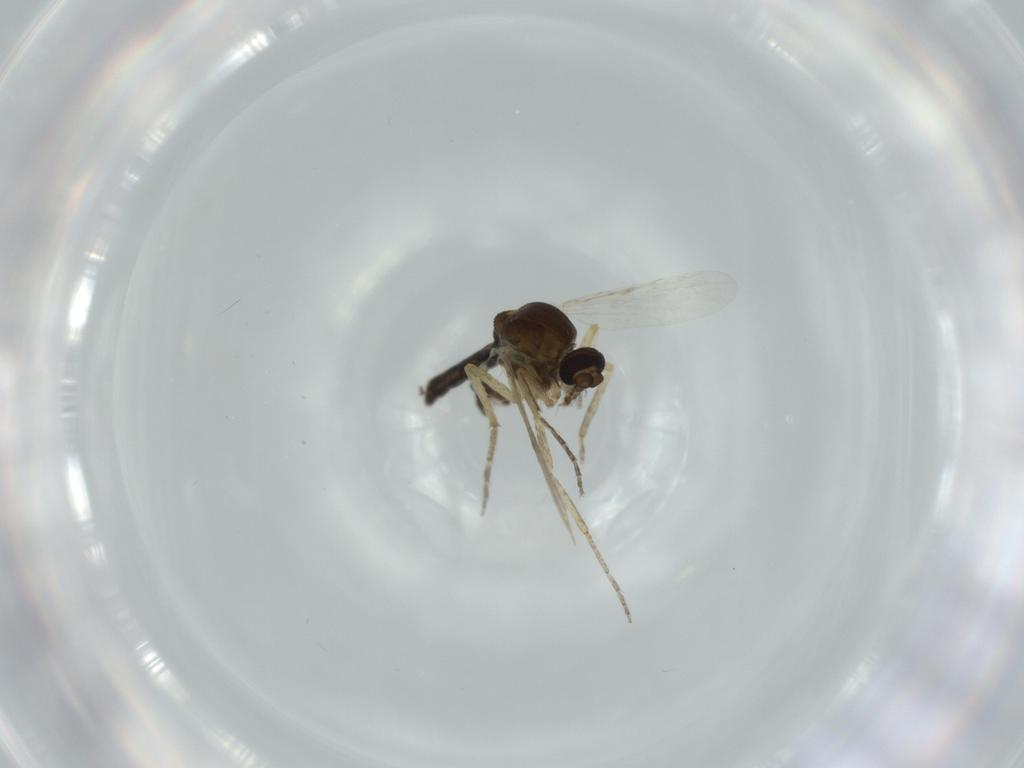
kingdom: Animalia
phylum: Arthropoda
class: Insecta
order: Diptera
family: Ceratopogonidae
